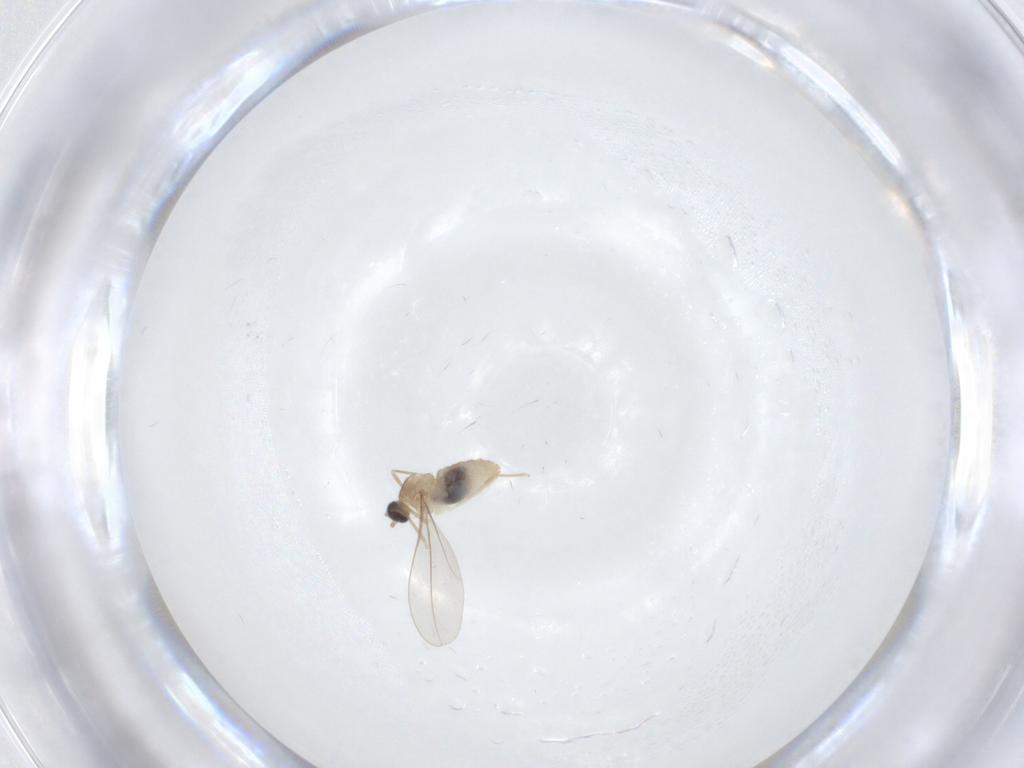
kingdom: Animalia
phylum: Arthropoda
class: Insecta
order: Diptera
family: Cecidomyiidae
